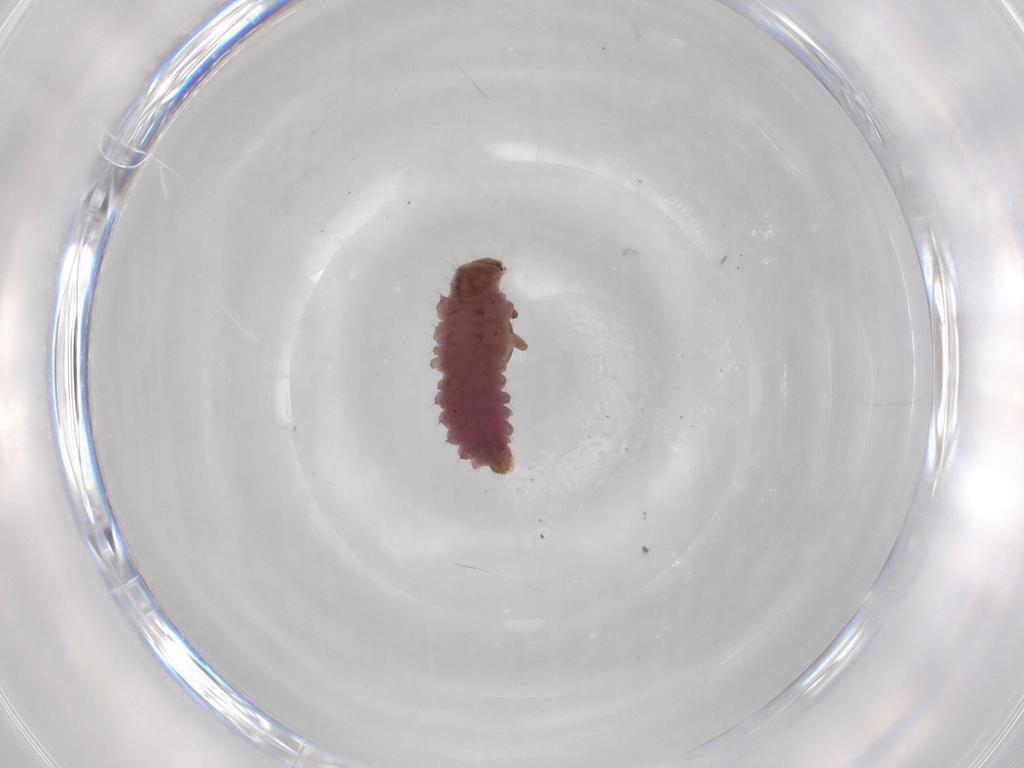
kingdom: Animalia
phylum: Arthropoda
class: Insecta
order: Coleoptera
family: Coccinellidae
